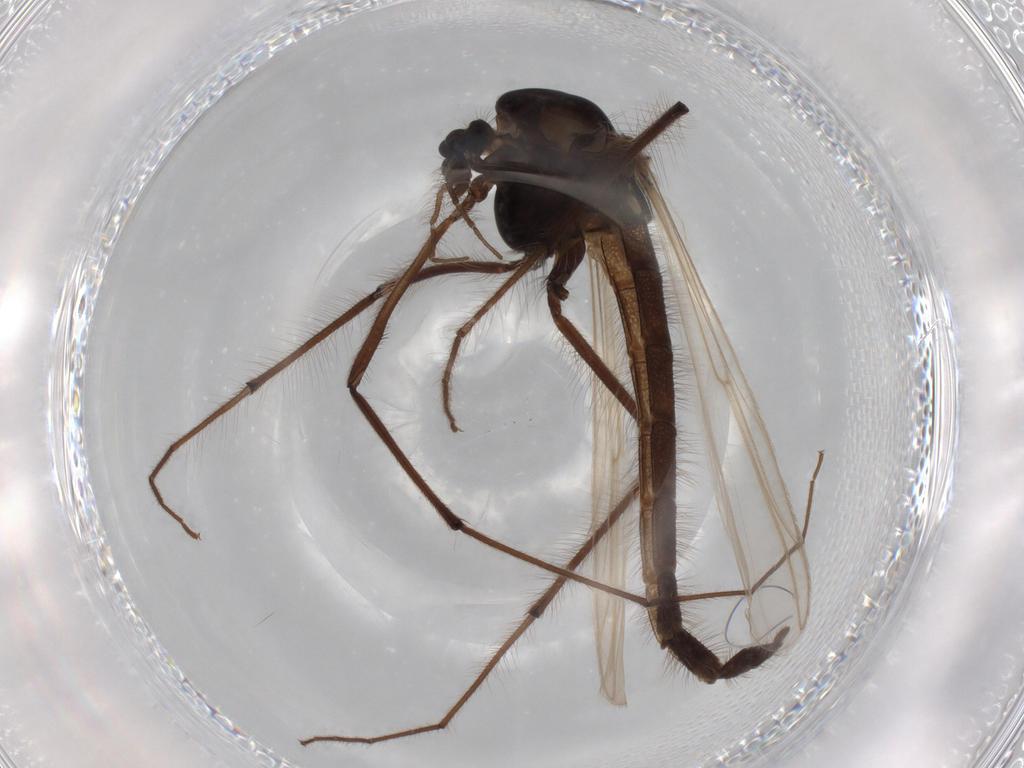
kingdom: Animalia
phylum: Arthropoda
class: Insecta
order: Diptera
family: Chironomidae
